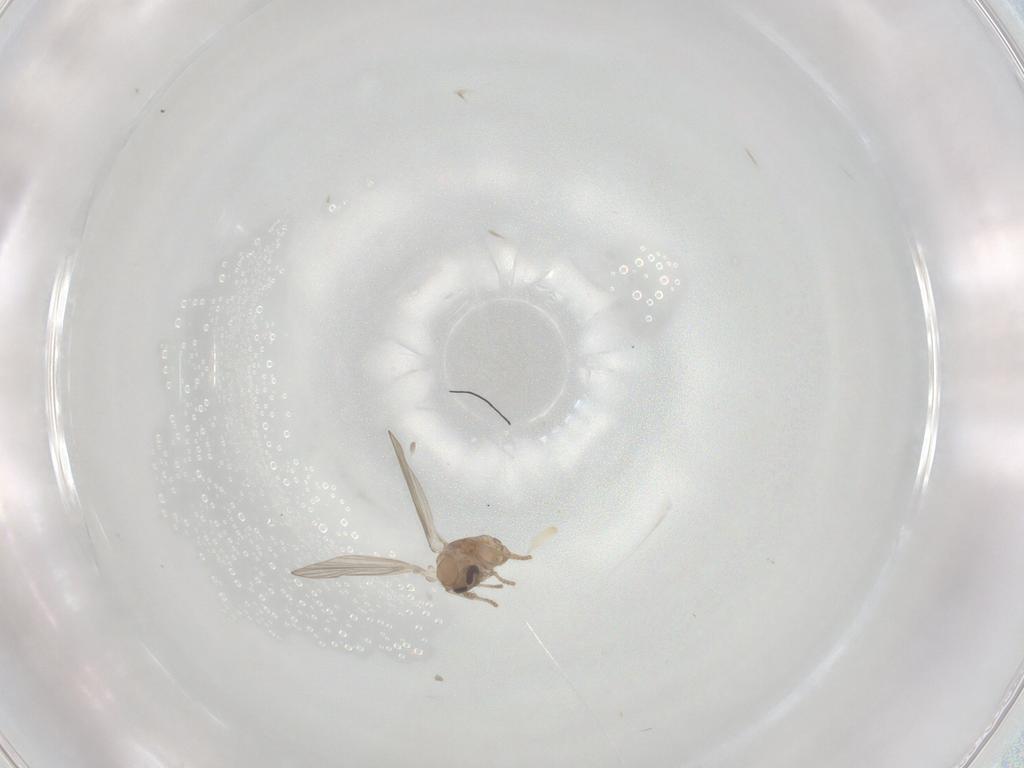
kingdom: Animalia
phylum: Arthropoda
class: Insecta
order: Diptera
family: Psychodidae
